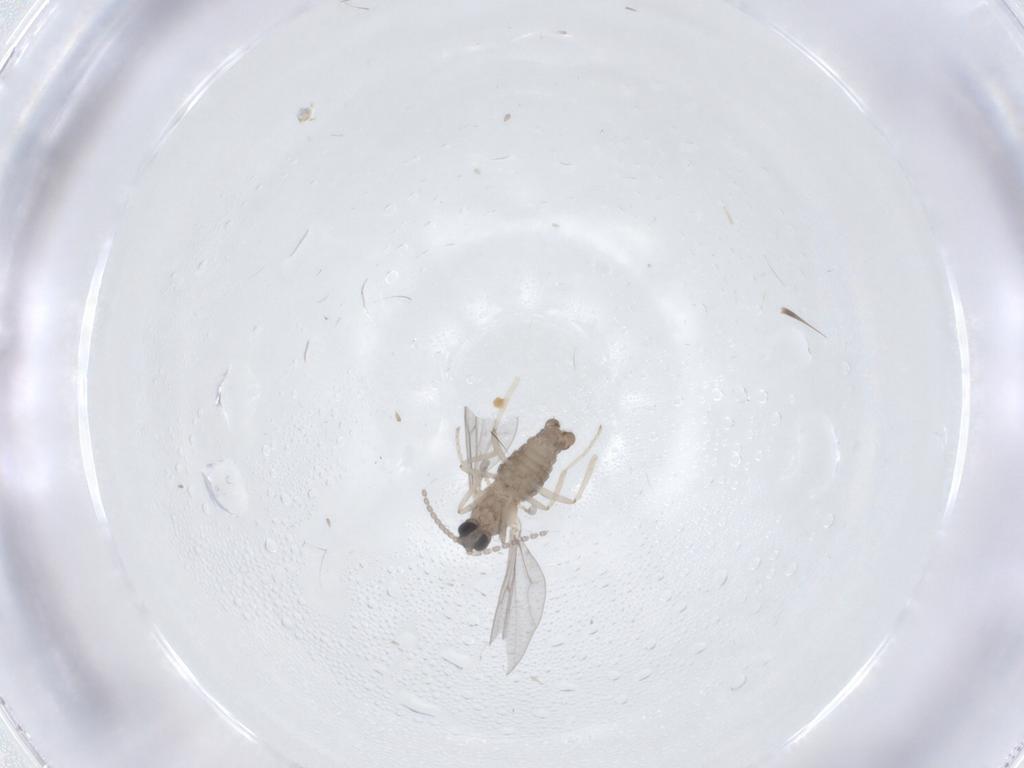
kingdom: Animalia
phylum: Arthropoda
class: Insecta
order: Diptera
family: Cecidomyiidae
